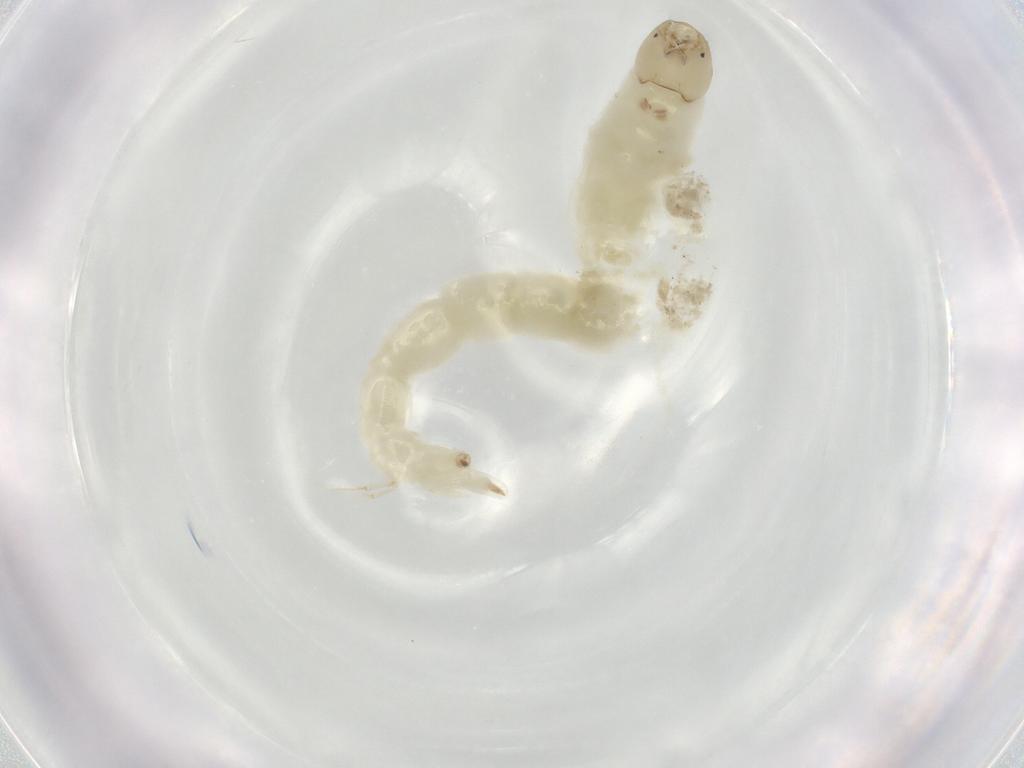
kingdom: Animalia
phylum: Arthropoda
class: Insecta
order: Diptera
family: Chironomidae
